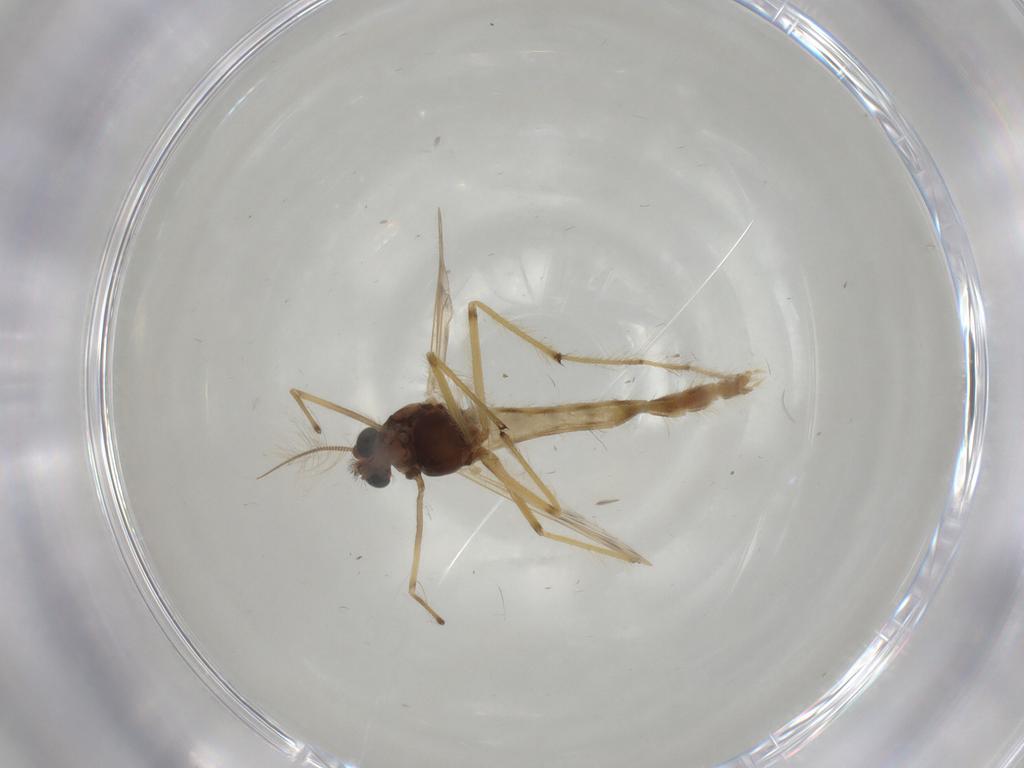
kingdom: Animalia
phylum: Arthropoda
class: Insecta
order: Diptera
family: Chironomidae
